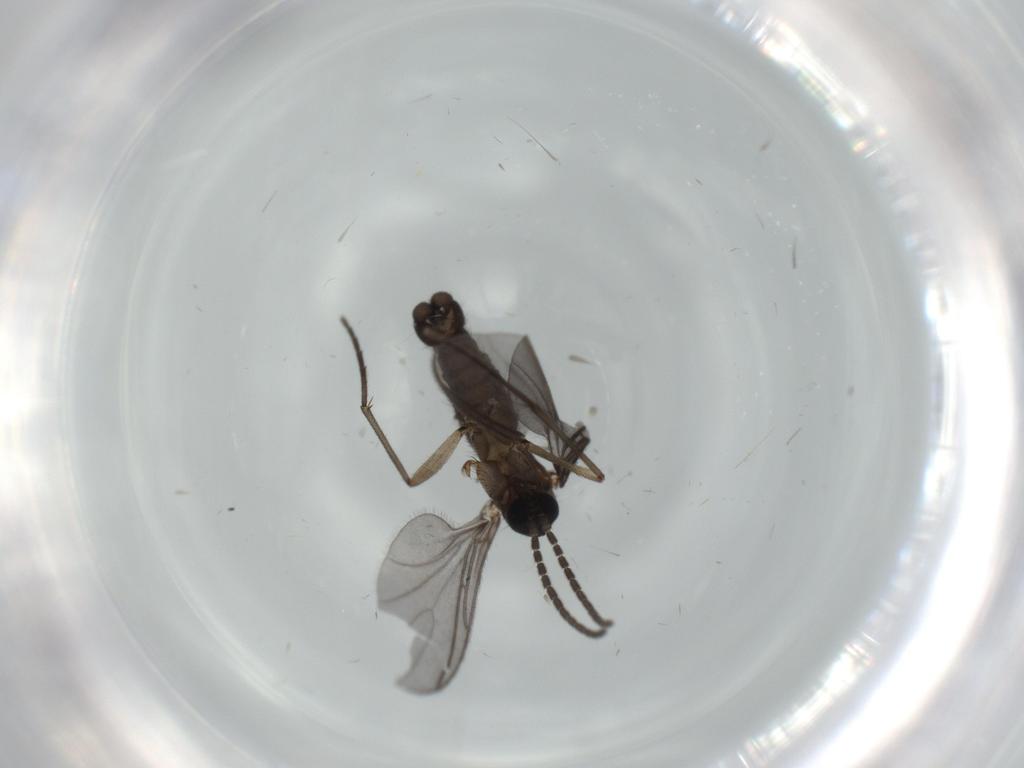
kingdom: Animalia
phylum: Arthropoda
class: Insecta
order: Diptera
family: Sciaridae
